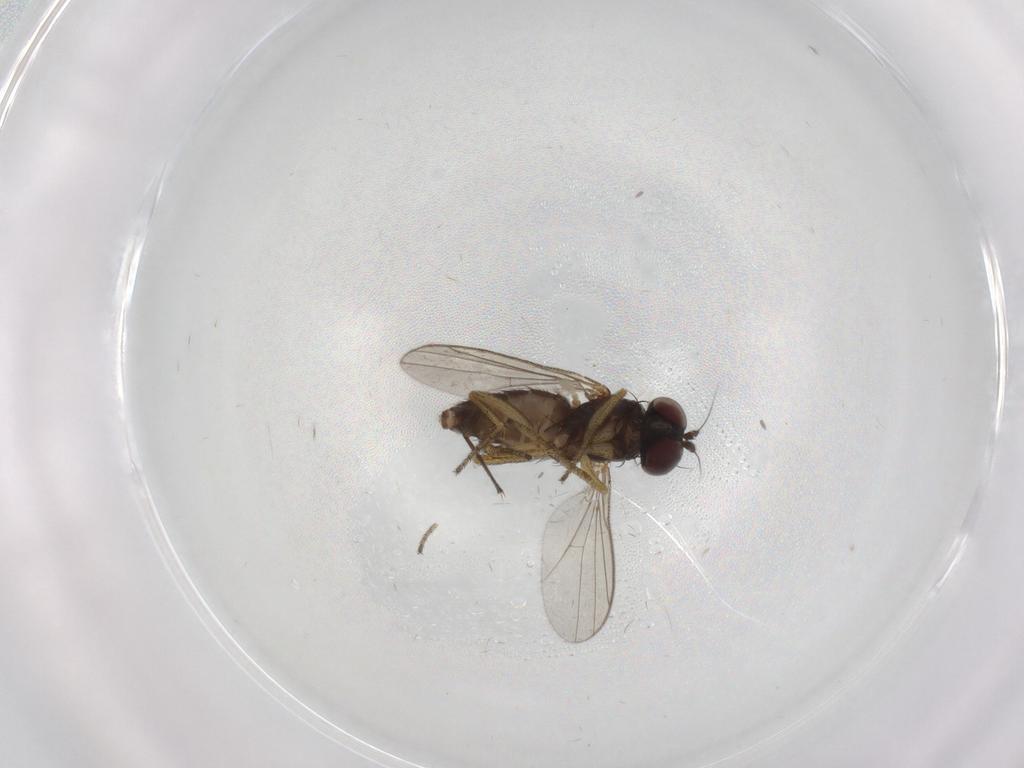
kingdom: Animalia
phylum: Arthropoda
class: Insecta
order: Diptera
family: Sciaridae
